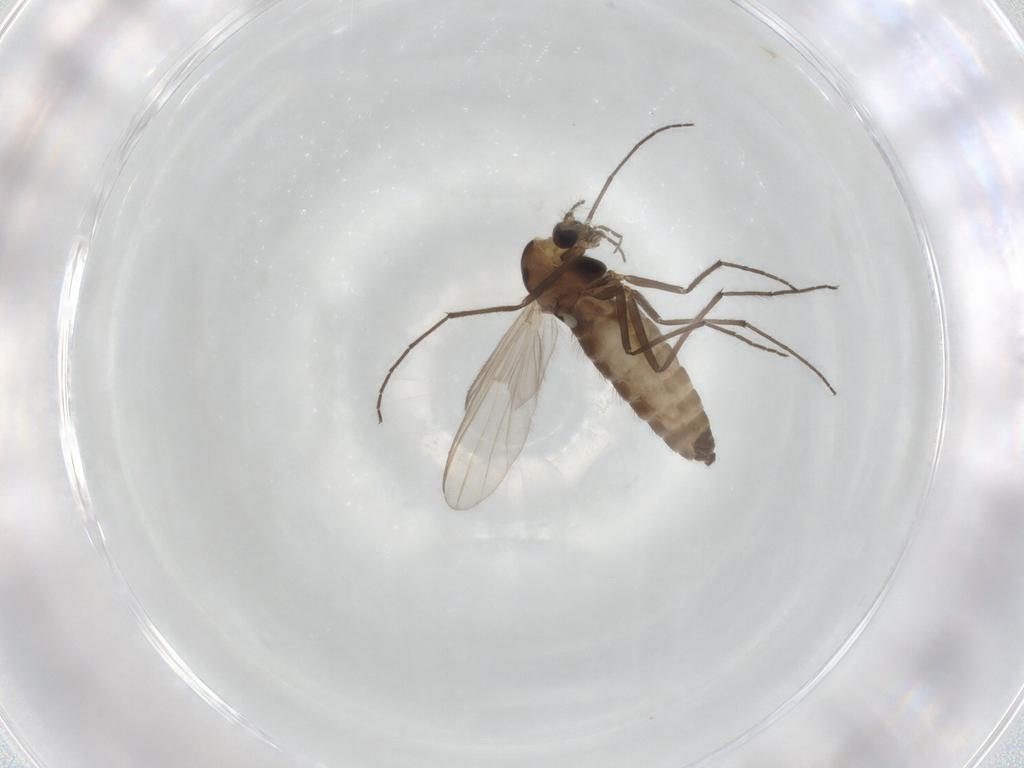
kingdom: Animalia
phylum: Arthropoda
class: Insecta
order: Diptera
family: Chironomidae
